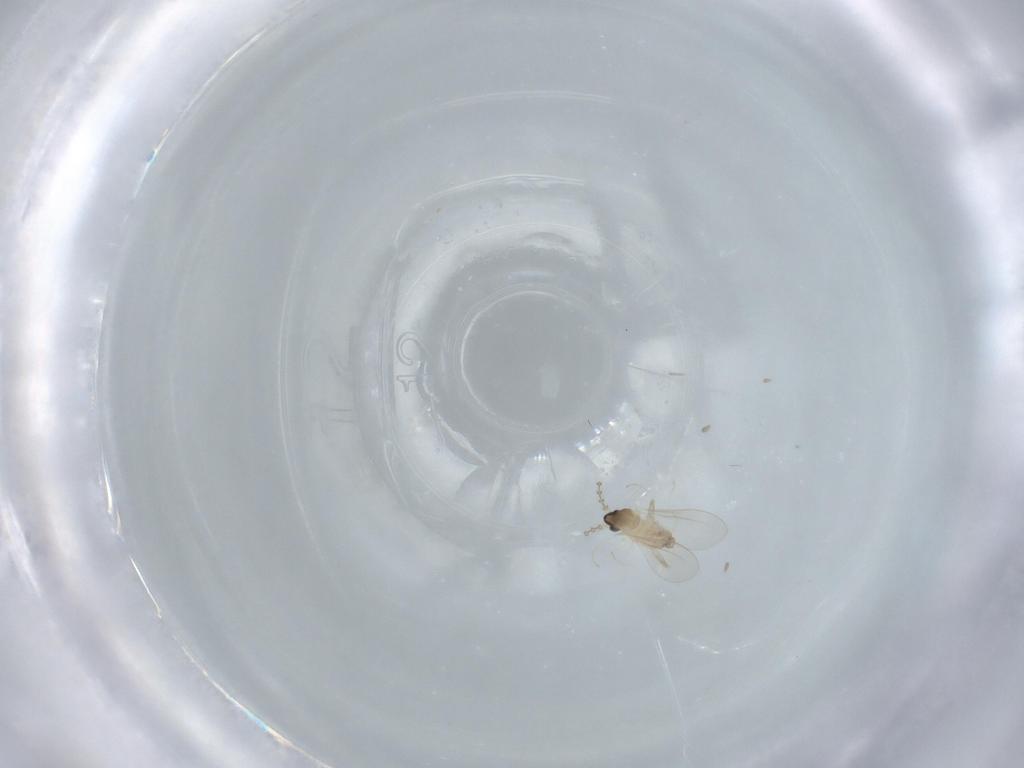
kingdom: Animalia
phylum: Arthropoda
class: Insecta
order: Diptera
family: Cecidomyiidae
